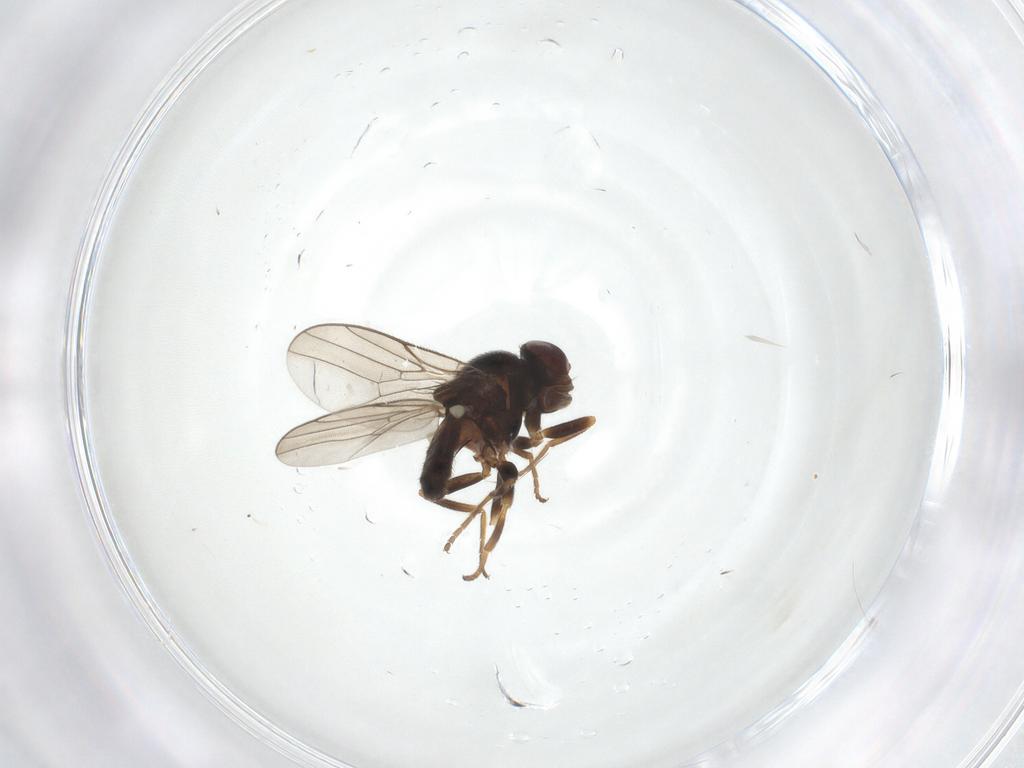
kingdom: Animalia
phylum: Arthropoda
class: Insecta
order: Diptera
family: Chloropidae
